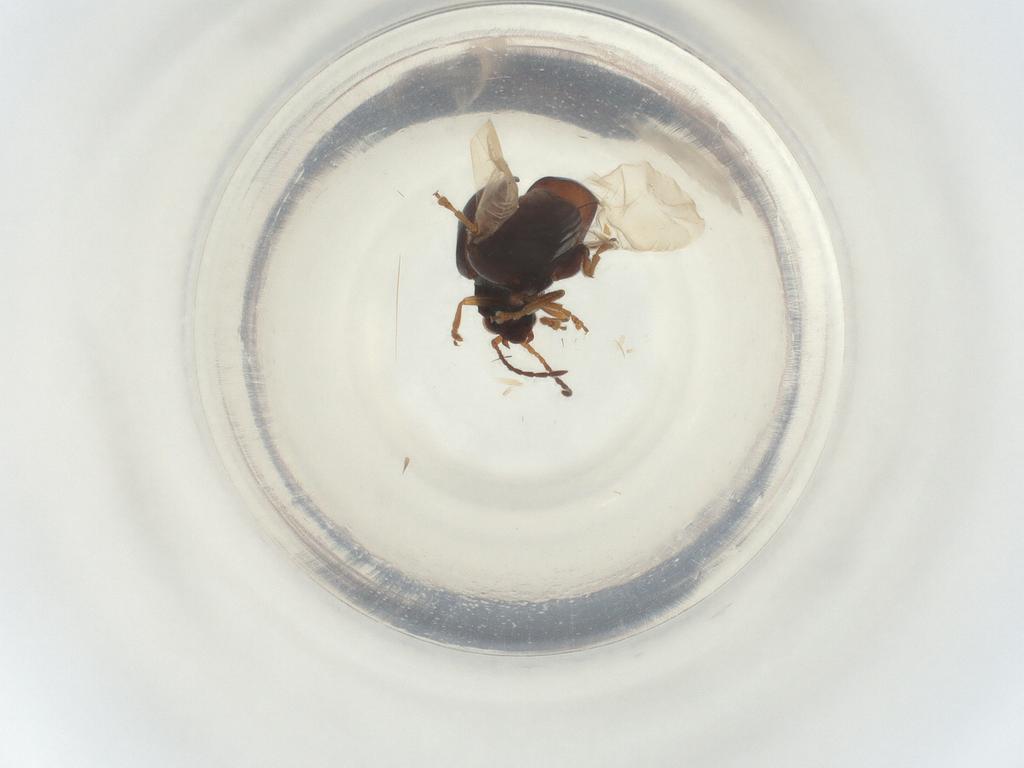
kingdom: Animalia
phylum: Arthropoda
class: Insecta
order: Coleoptera
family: Chrysomelidae
